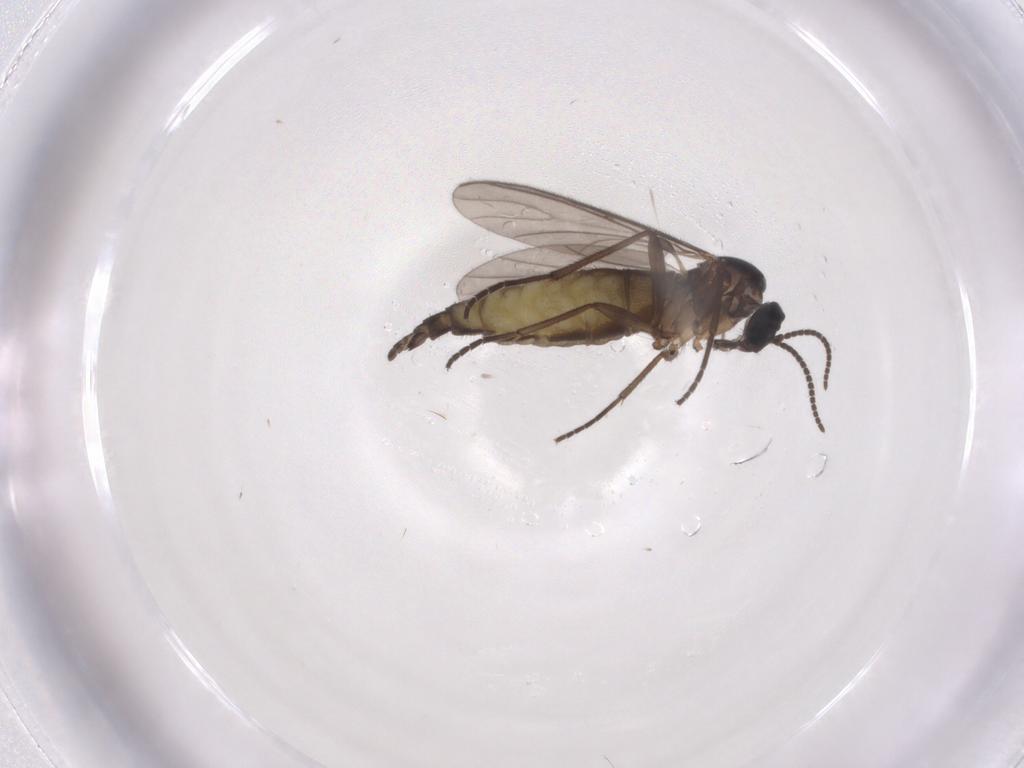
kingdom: Animalia
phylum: Arthropoda
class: Insecta
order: Diptera
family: Sciaridae
